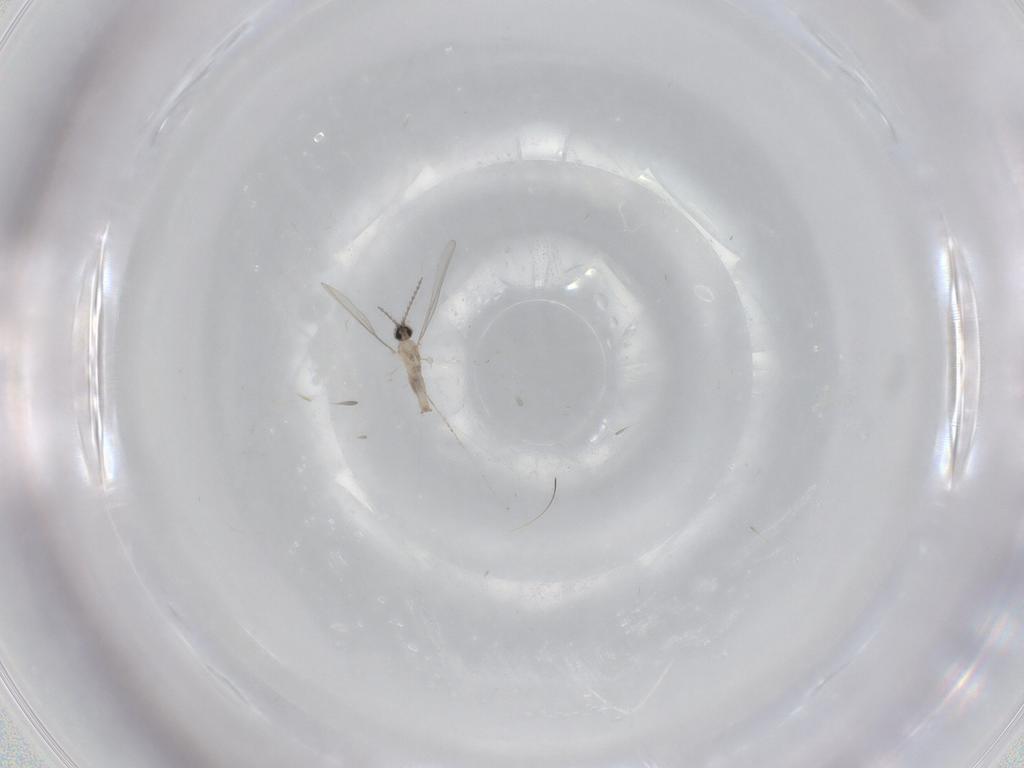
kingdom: Animalia
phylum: Arthropoda
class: Insecta
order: Diptera
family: Cecidomyiidae
